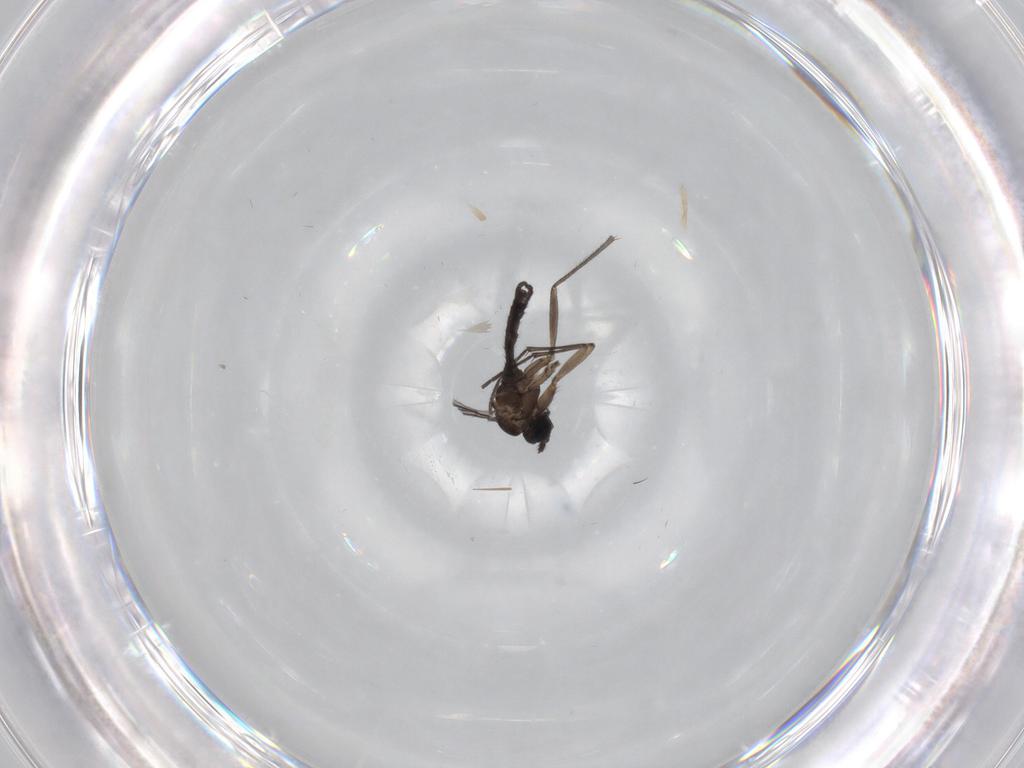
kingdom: Animalia
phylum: Arthropoda
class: Insecta
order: Diptera
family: Sciaridae
